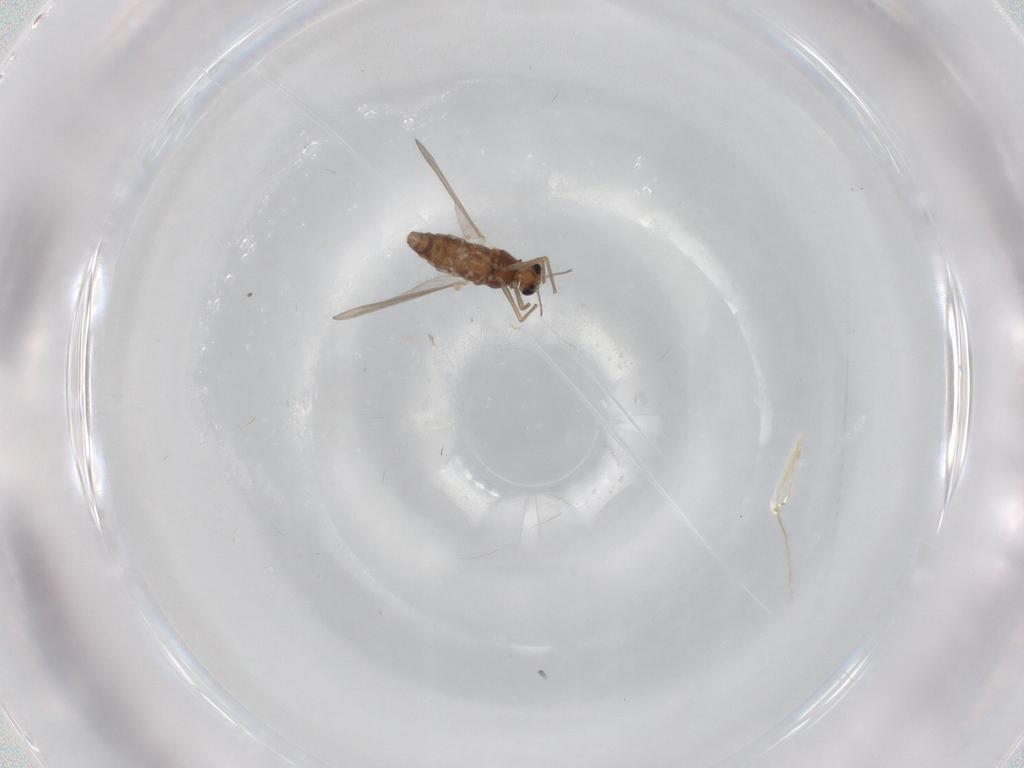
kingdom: Animalia
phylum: Arthropoda
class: Insecta
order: Diptera
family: Chironomidae
